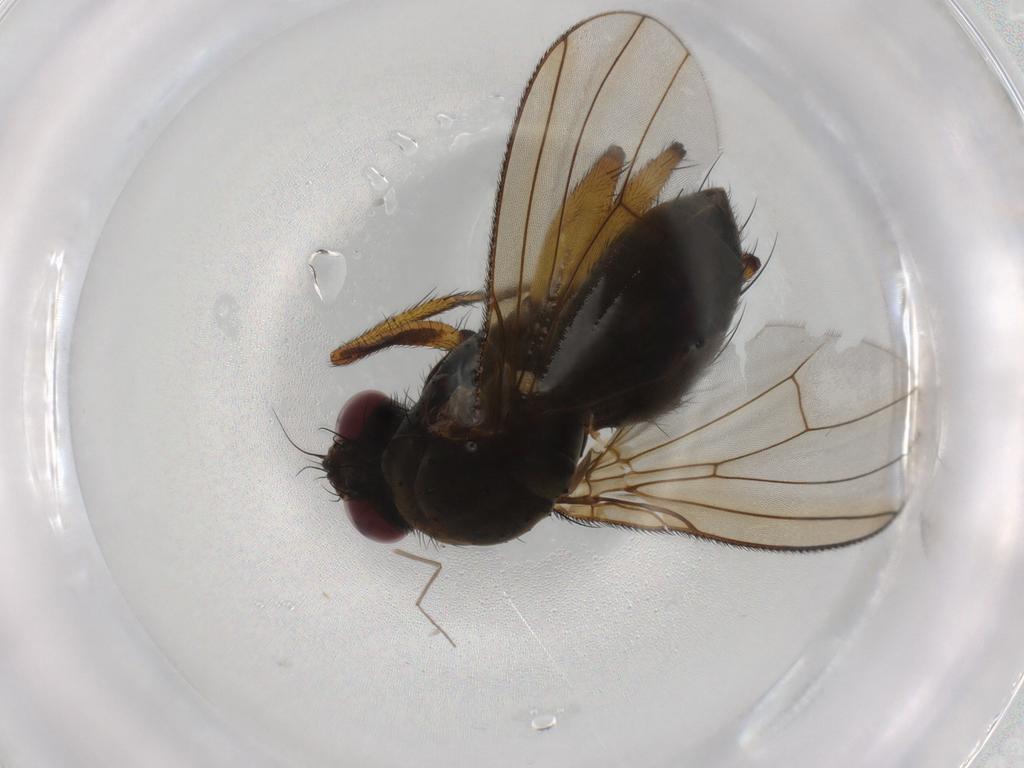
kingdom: Animalia
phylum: Arthropoda
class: Insecta
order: Diptera
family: Muscidae
